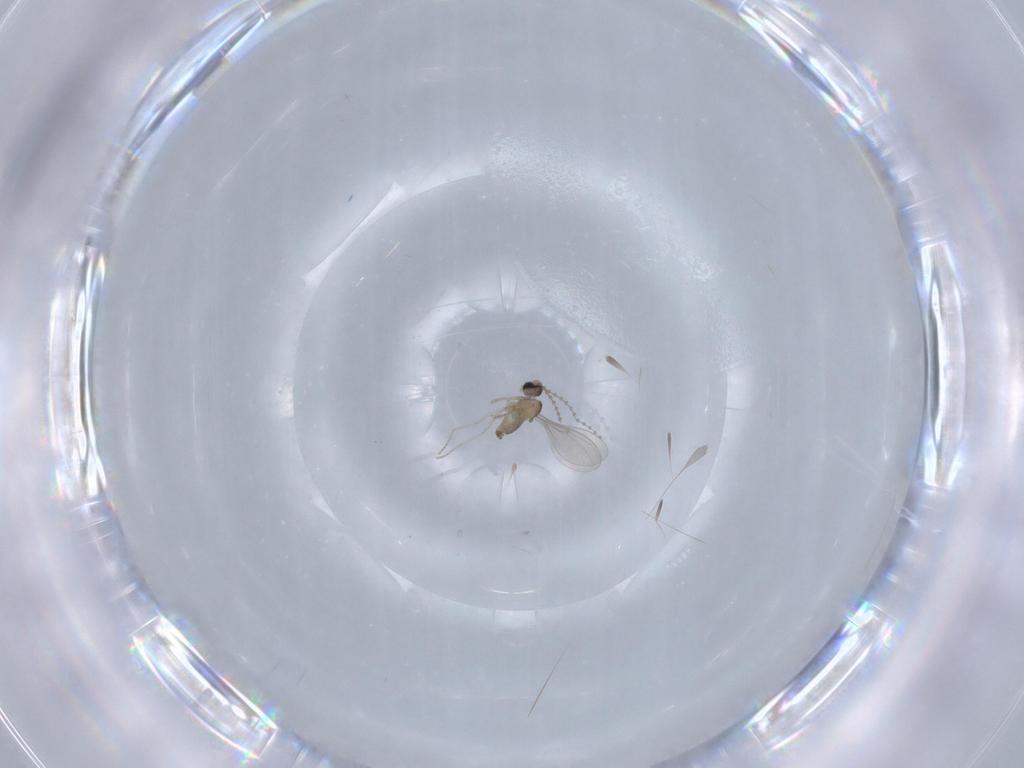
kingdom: Animalia
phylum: Arthropoda
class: Insecta
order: Diptera
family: Cecidomyiidae
